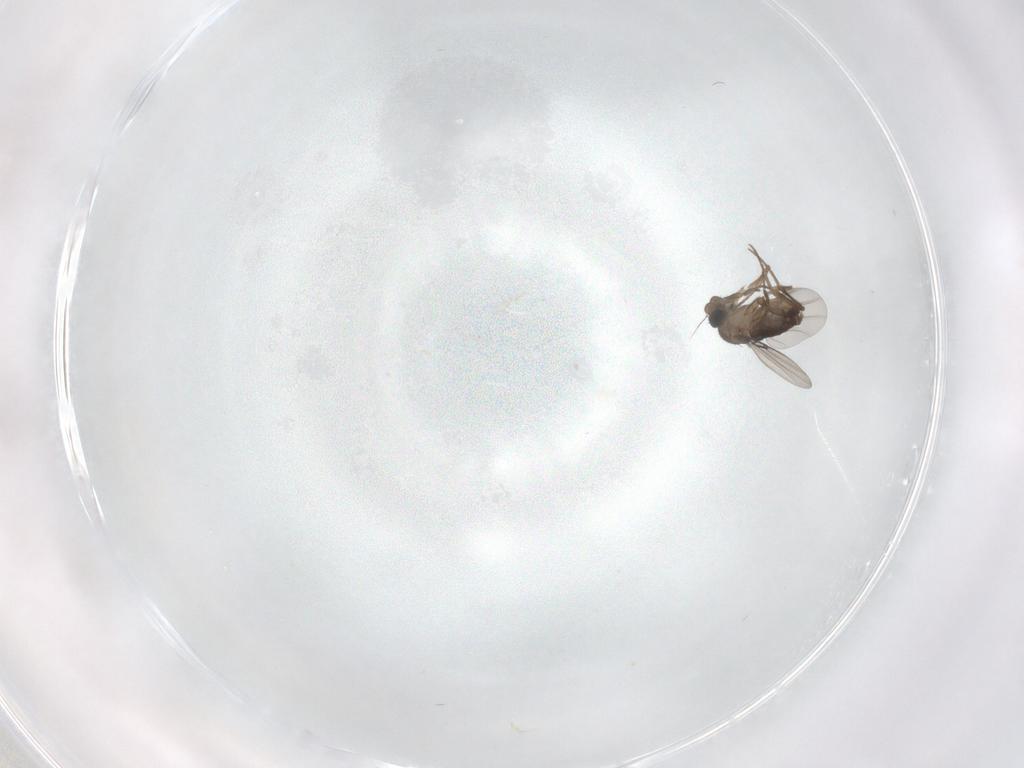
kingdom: Animalia
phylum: Arthropoda
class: Insecta
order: Diptera
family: Phoridae
